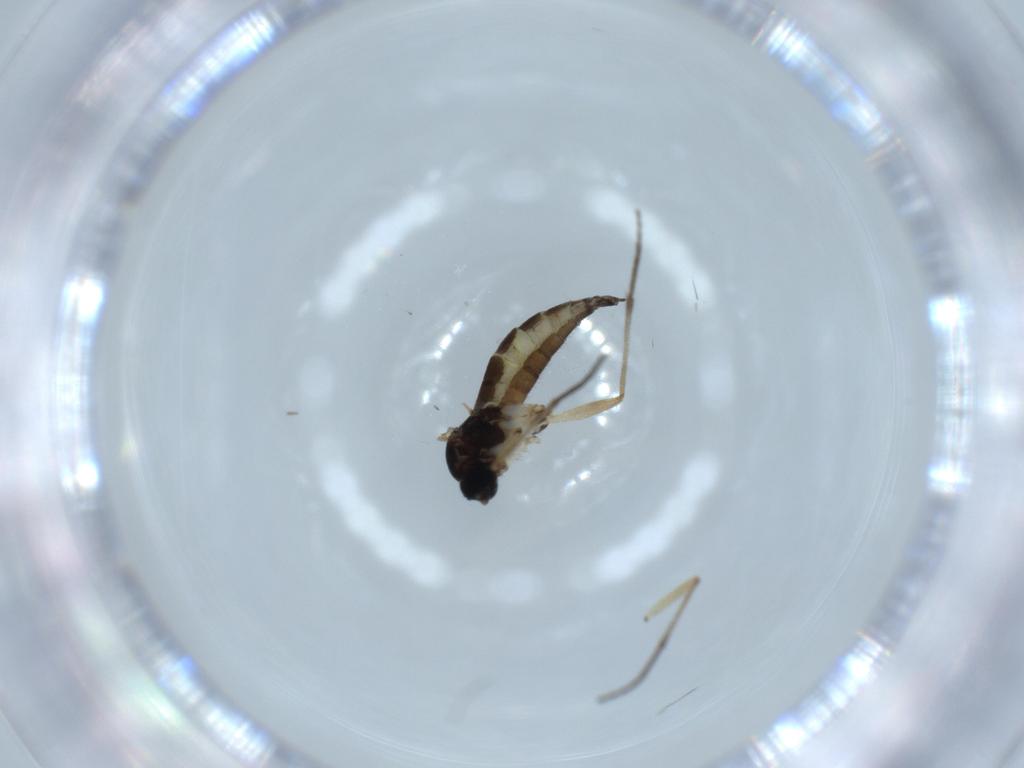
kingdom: Animalia
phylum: Arthropoda
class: Insecta
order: Diptera
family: Sciaridae
